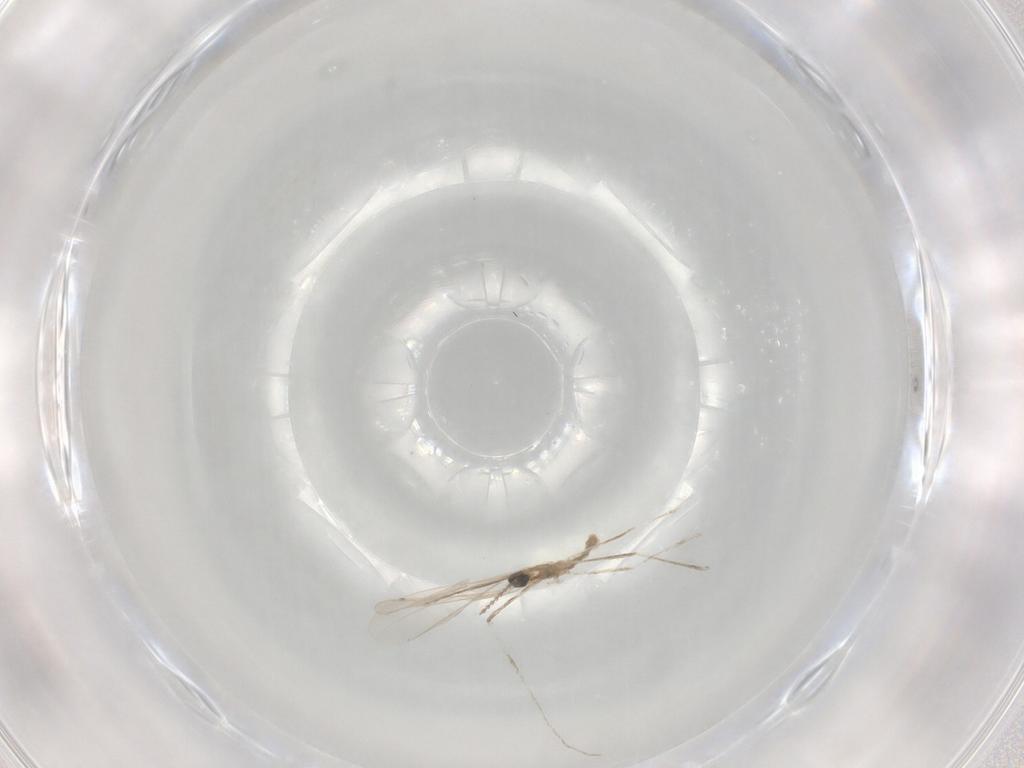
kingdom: Animalia
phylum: Arthropoda
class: Insecta
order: Diptera
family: Cecidomyiidae
